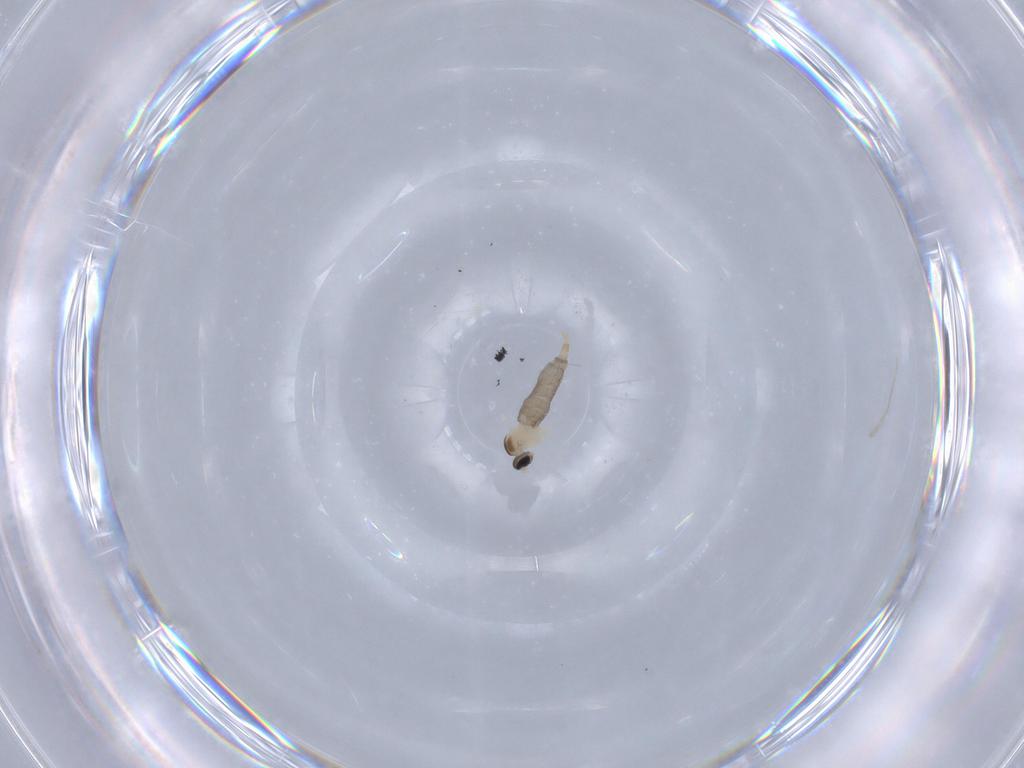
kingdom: Animalia
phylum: Arthropoda
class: Insecta
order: Diptera
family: Cecidomyiidae
